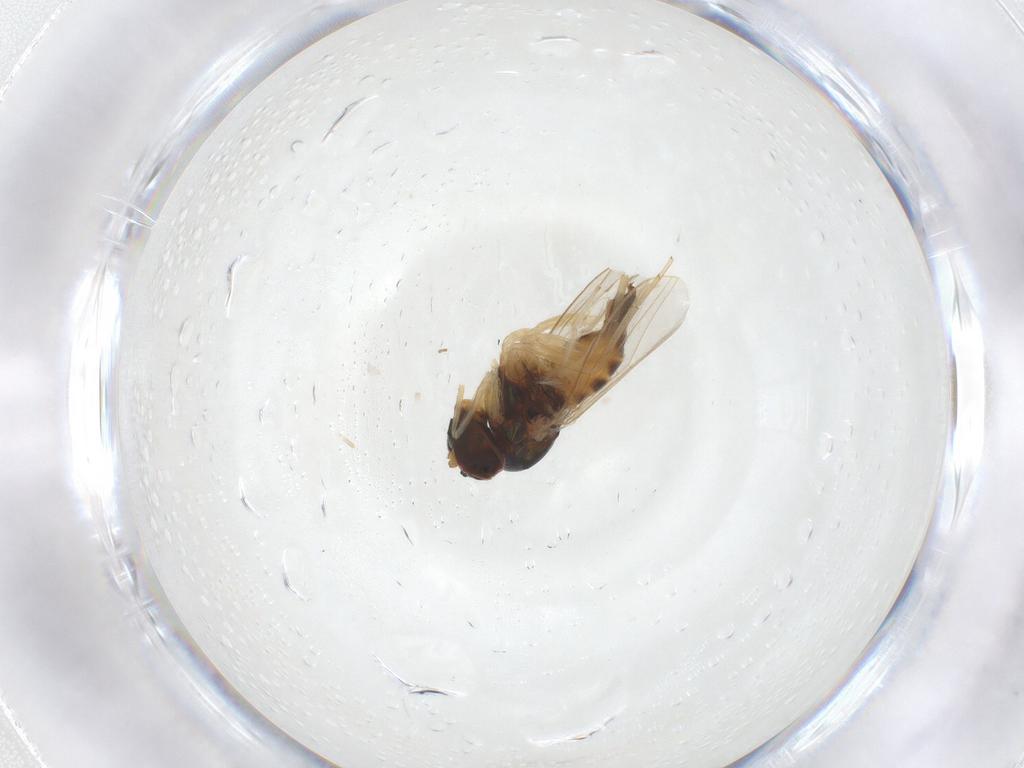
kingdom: Animalia
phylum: Arthropoda
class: Insecta
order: Diptera
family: Dolichopodidae
